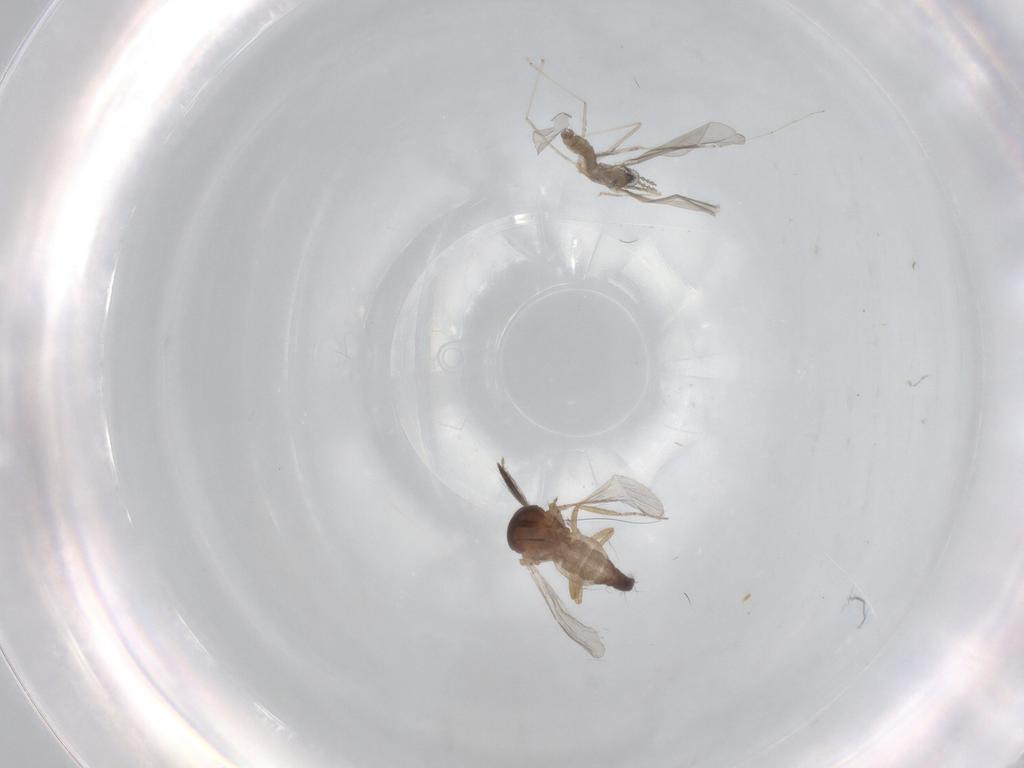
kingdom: Animalia
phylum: Arthropoda
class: Insecta
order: Diptera
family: Ceratopogonidae
